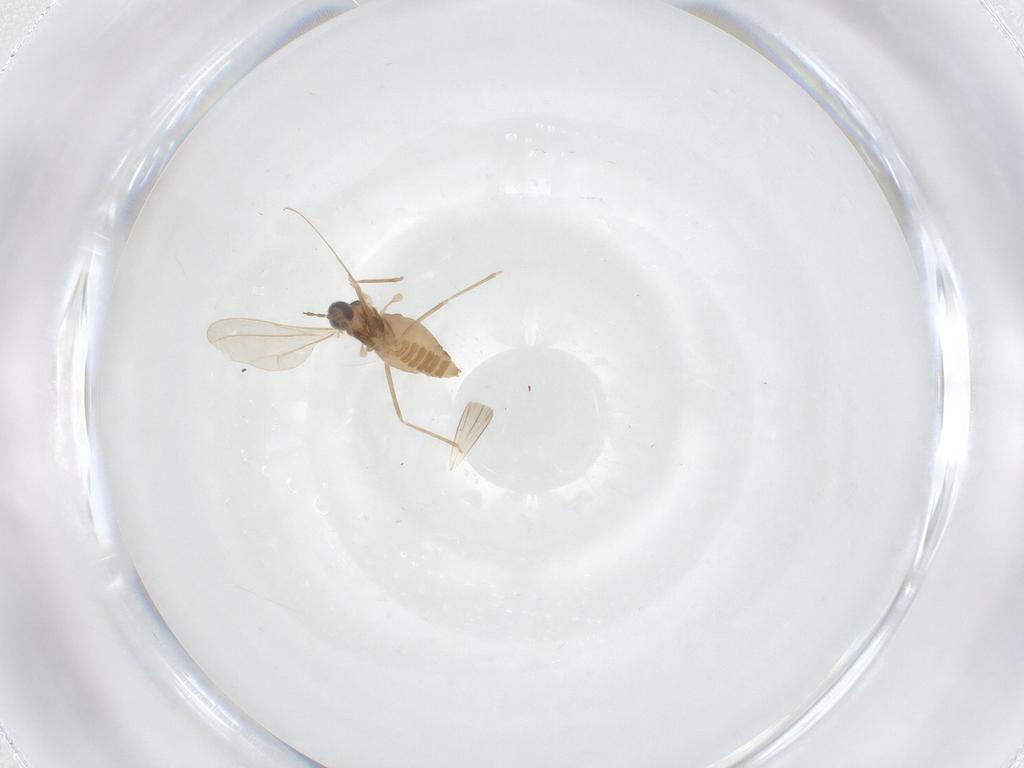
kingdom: Animalia
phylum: Arthropoda
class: Insecta
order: Diptera
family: Cecidomyiidae
